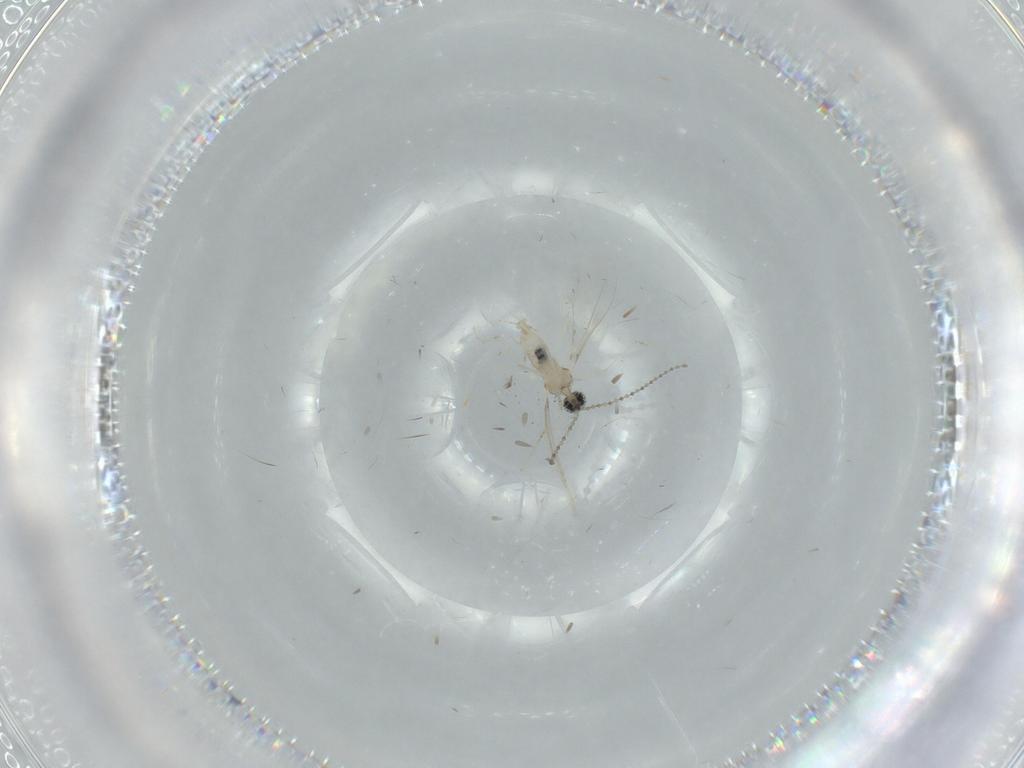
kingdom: Animalia
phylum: Arthropoda
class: Insecta
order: Diptera
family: Cecidomyiidae
